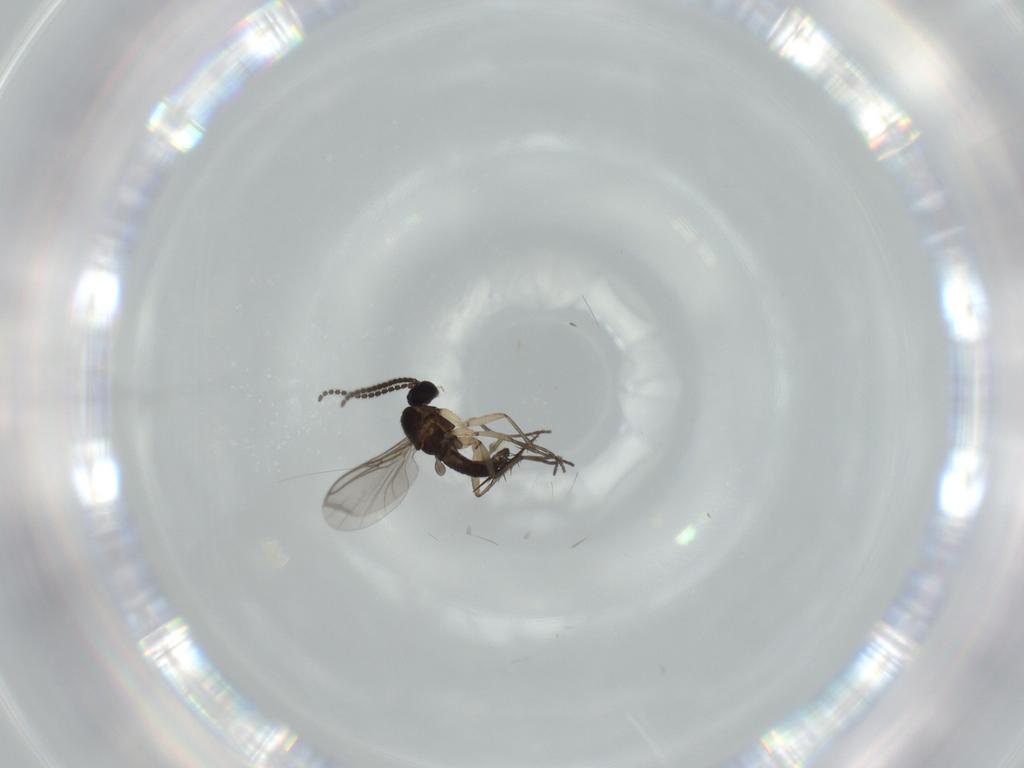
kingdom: Animalia
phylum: Arthropoda
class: Insecta
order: Diptera
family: Sciaridae
